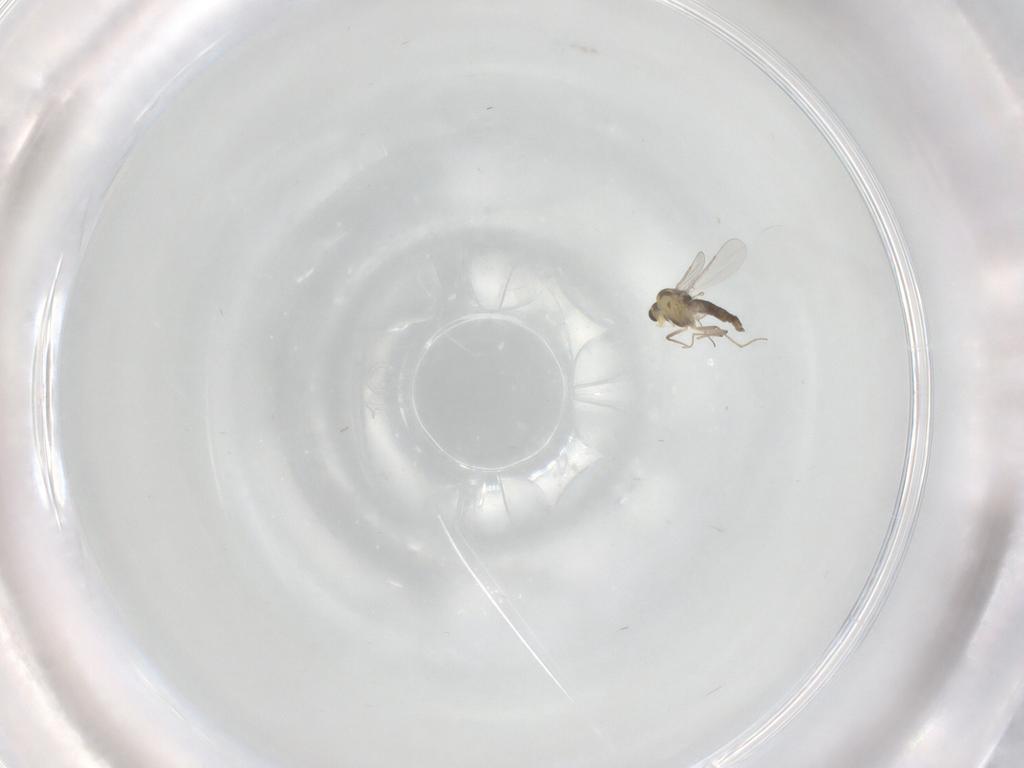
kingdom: Animalia
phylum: Arthropoda
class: Insecta
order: Diptera
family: Chironomidae
